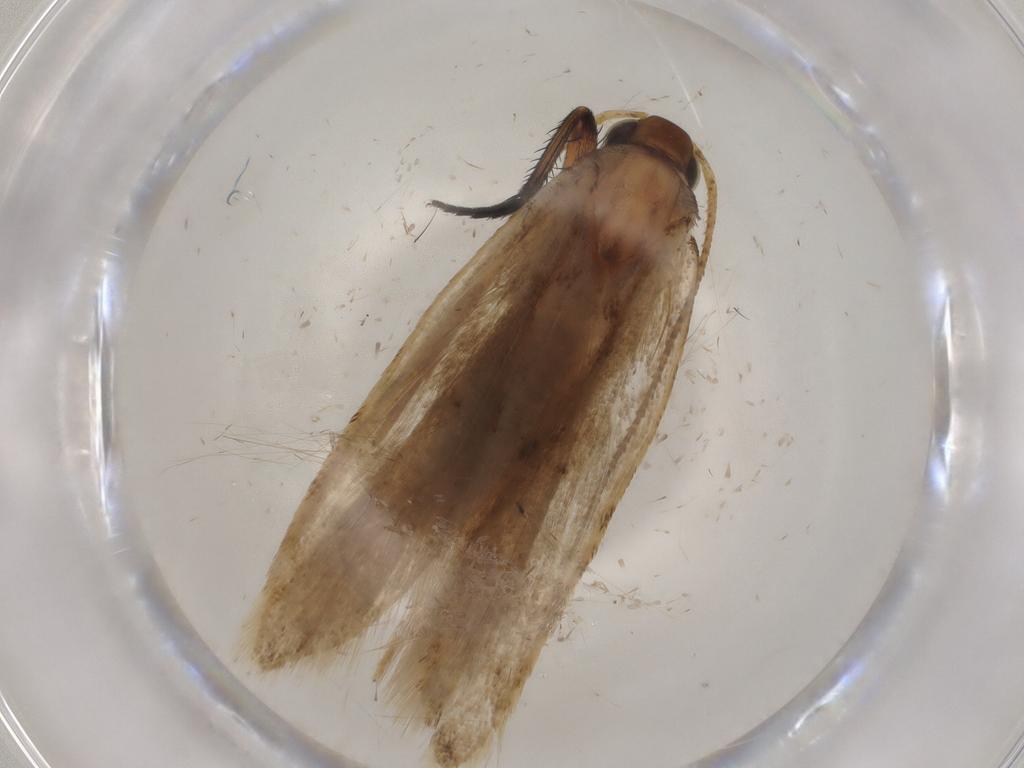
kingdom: Animalia
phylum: Arthropoda
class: Insecta
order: Lepidoptera
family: Gelechiidae
